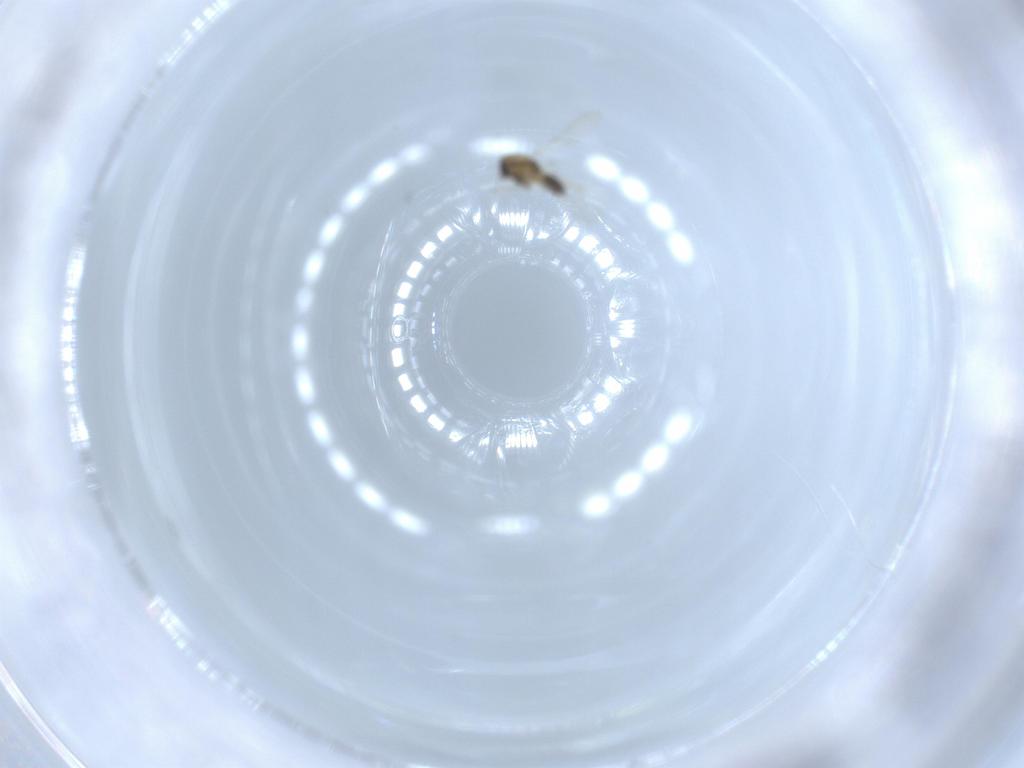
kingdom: Animalia
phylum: Arthropoda
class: Insecta
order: Diptera
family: Chironomidae
